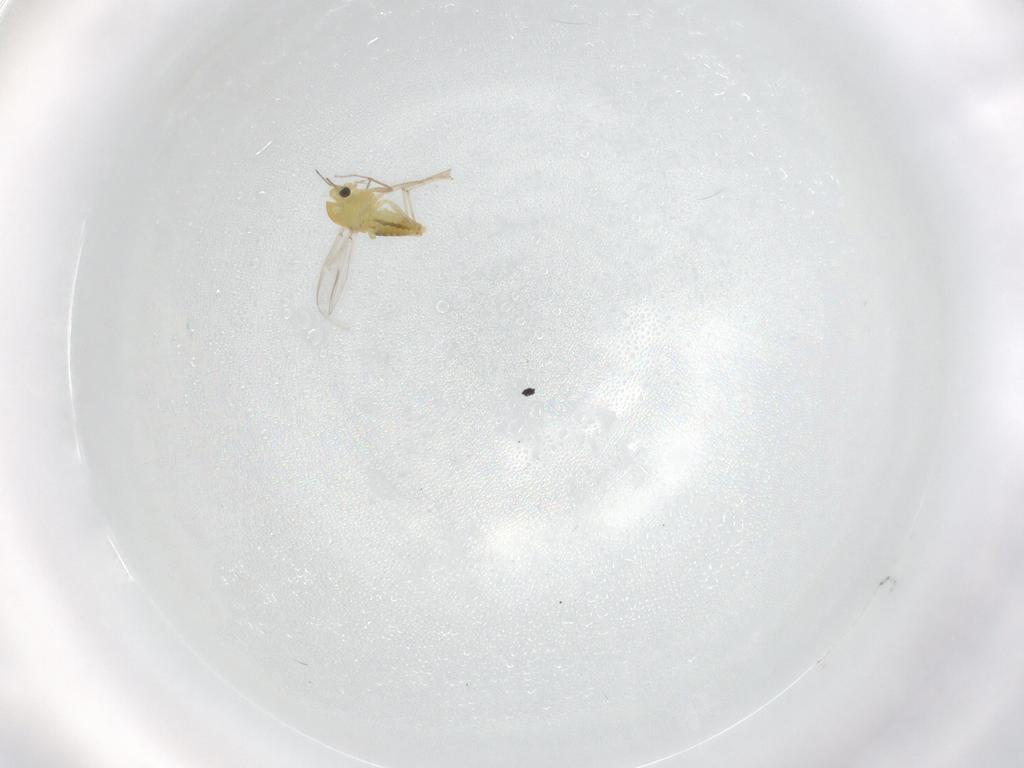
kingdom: Animalia
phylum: Arthropoda
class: Insecta
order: Diptera
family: Chironomidae
